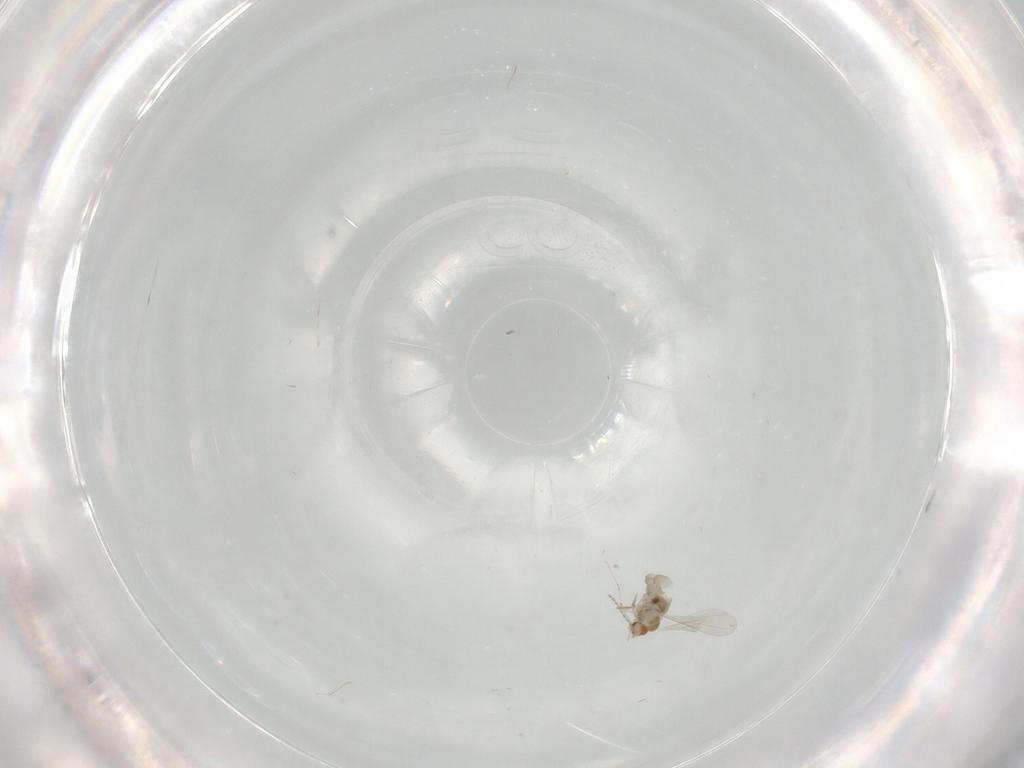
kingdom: Animalia
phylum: Arthropoda
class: Insecta
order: Diptera
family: Cecidomyiidae
